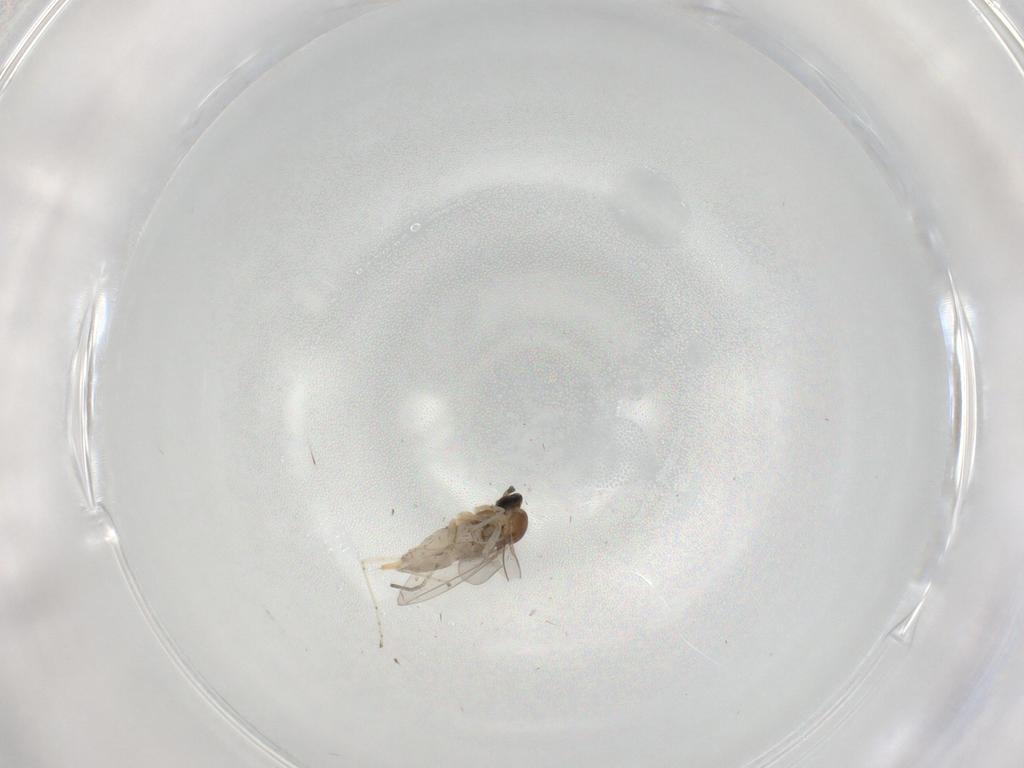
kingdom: Animalia
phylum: Arthropoda
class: Insecta
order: Diptera
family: Cecidomyiidae
